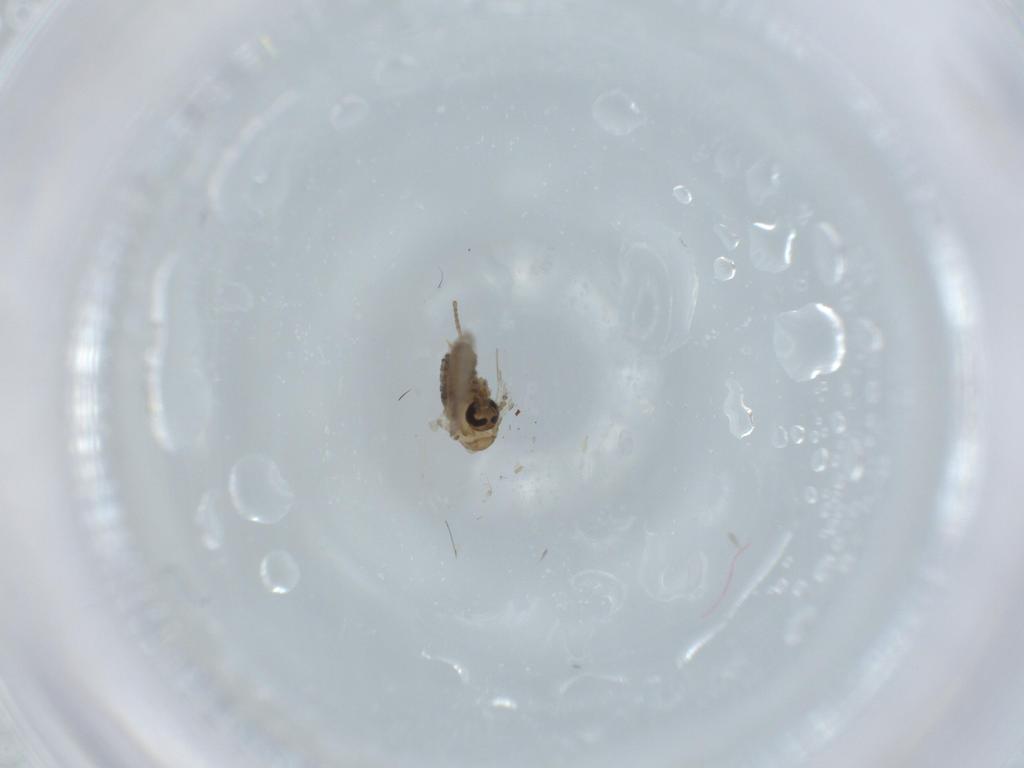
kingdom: Animalia
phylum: Arthropoda
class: Insecta
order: Diptera
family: Psychodidae
